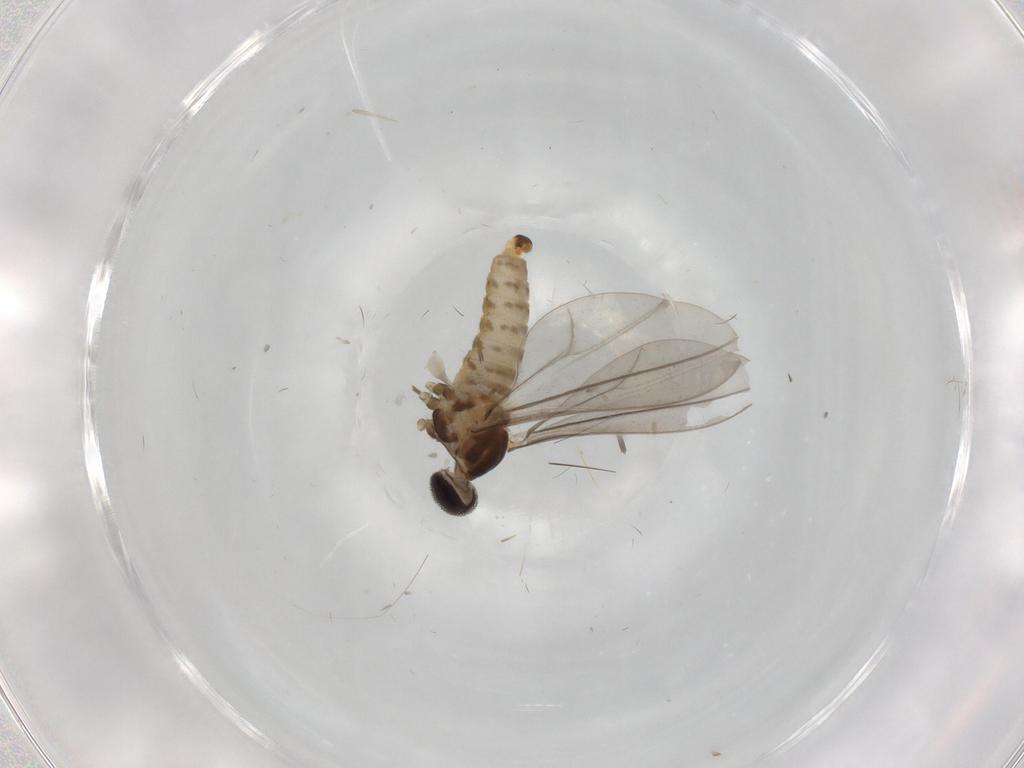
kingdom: Animalia
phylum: Arthropoda
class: Insecta
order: Diptera
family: Cecidomyiidae
